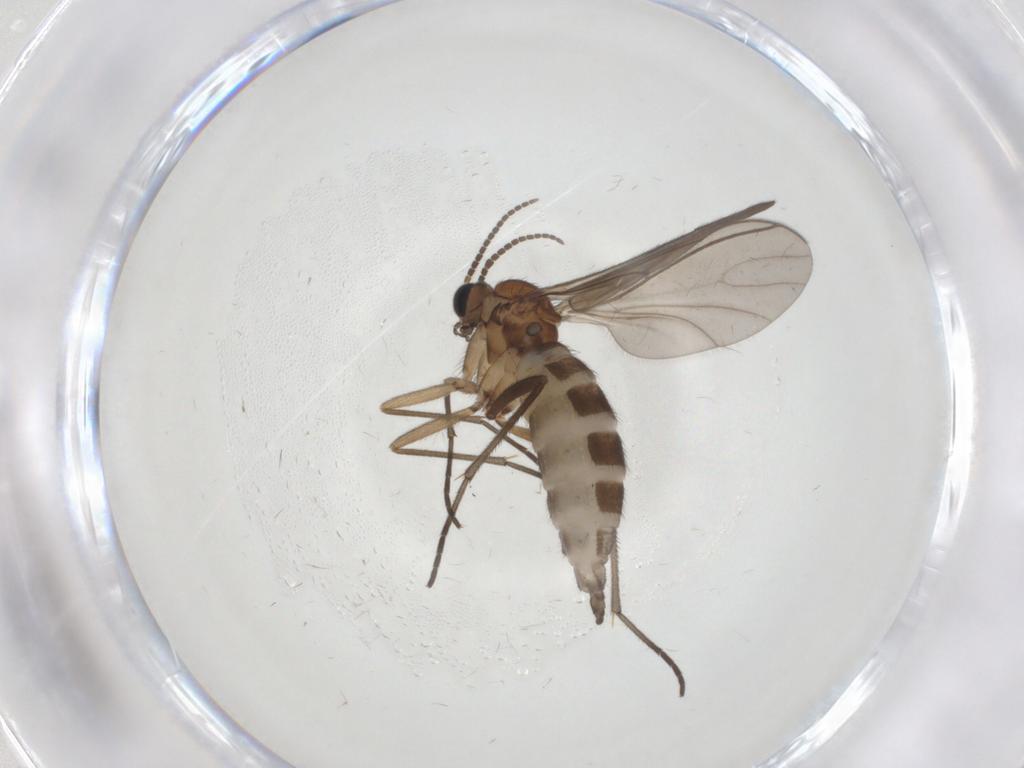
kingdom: Animalia
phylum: Arthropoda
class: Insecta
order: Diptera
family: Sciaridae
